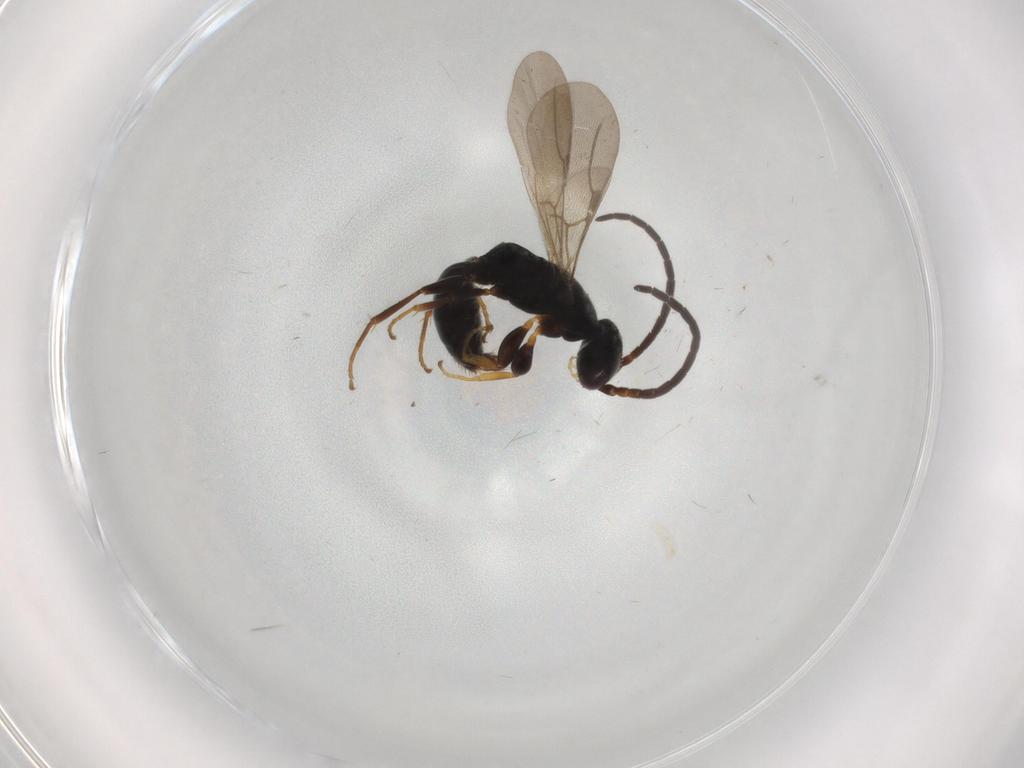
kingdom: Animalia
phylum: Arthropoda
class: Insecta
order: Hymenoptera
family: Bethylidae
